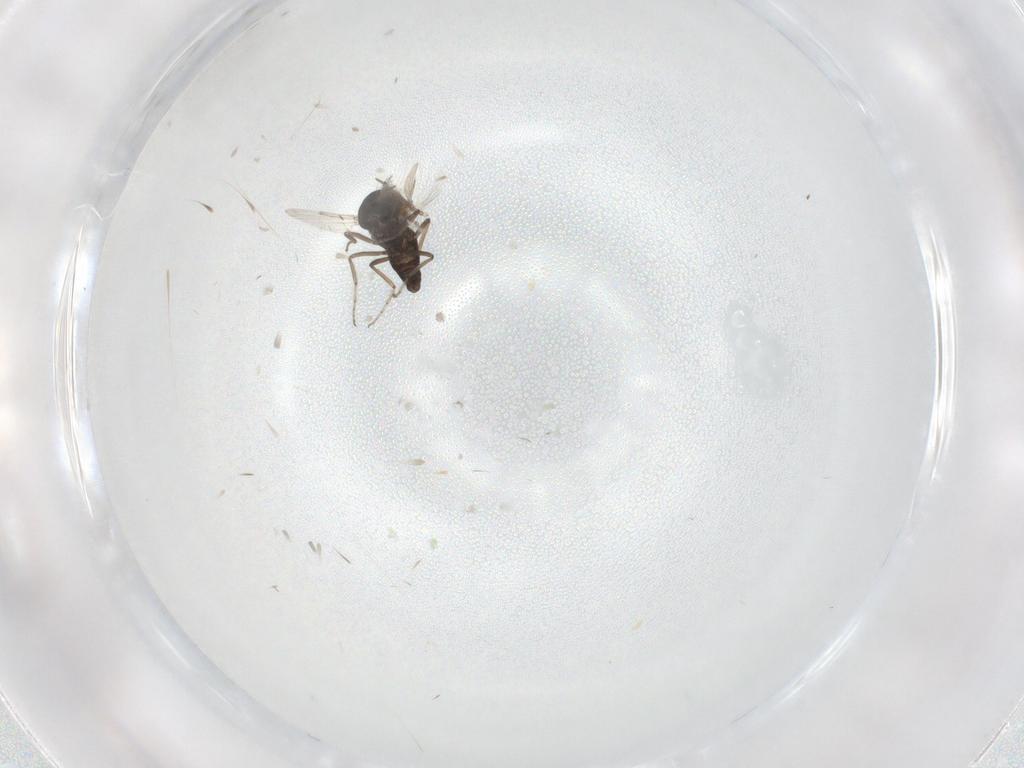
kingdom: Animalia
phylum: Arthropoda
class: Insecta
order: Diptera
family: Ceratopogonidae
